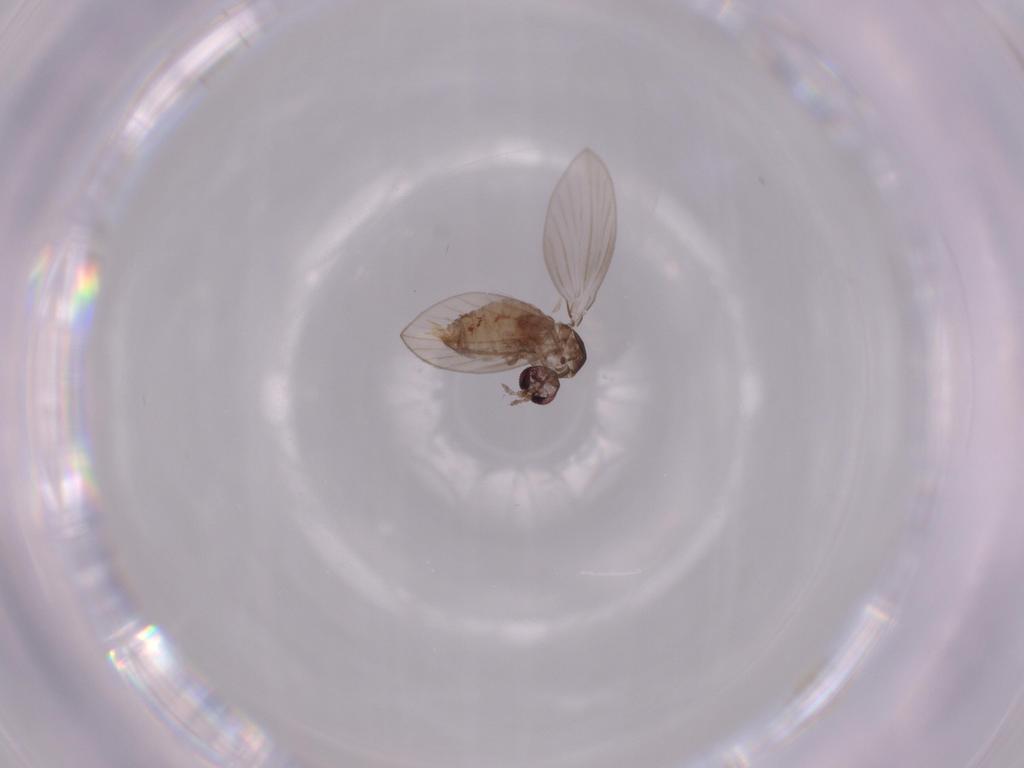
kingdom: Animalia
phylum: Arthropoda
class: Insecta
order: Diptera
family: Psychodidae
